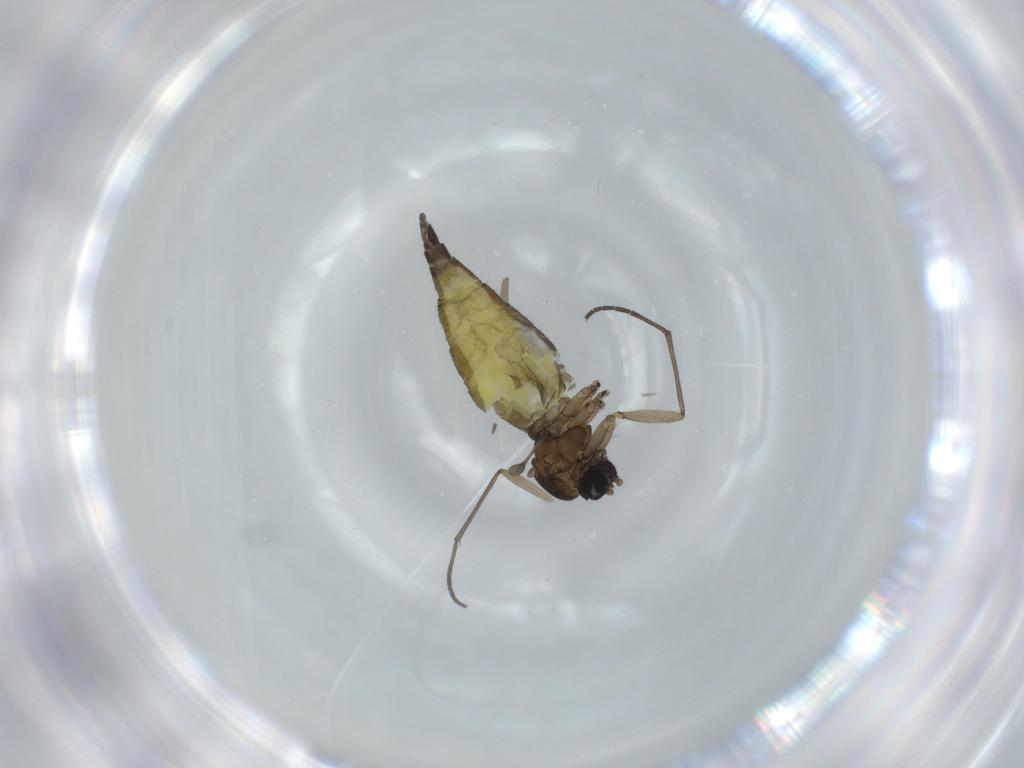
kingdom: Animalia
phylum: Arthropoda
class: Insecta
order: Diptera
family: Sciaridae
